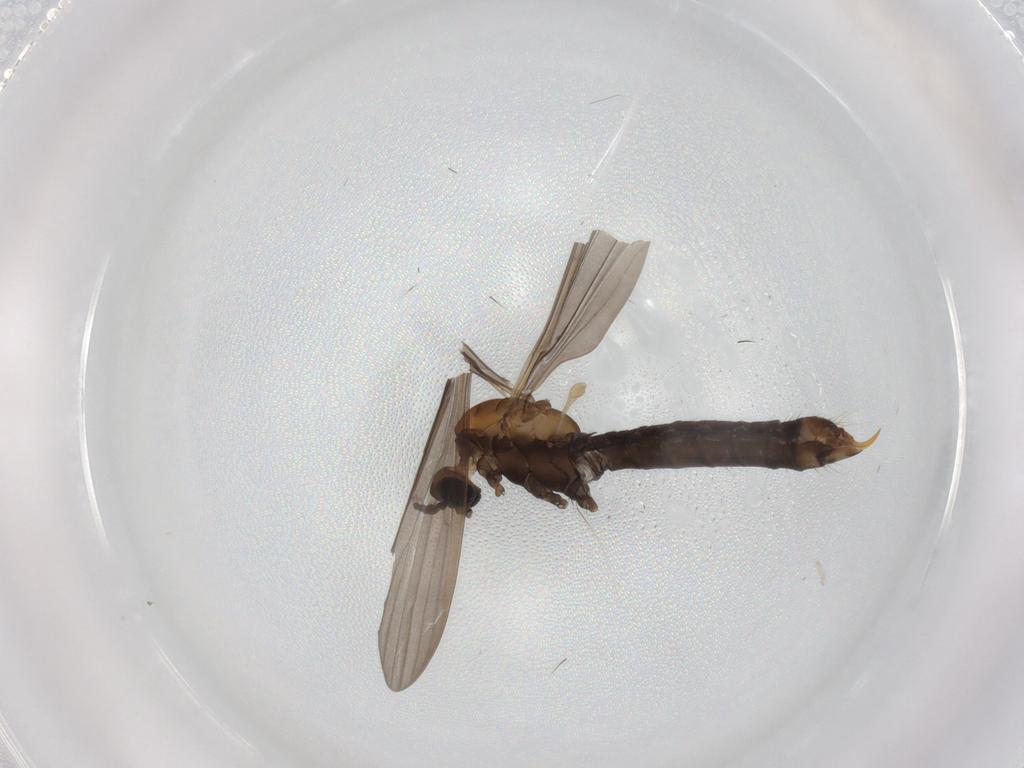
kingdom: Animalia
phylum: Arthropoda
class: Insecta
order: Diptera
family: Limoniidae
